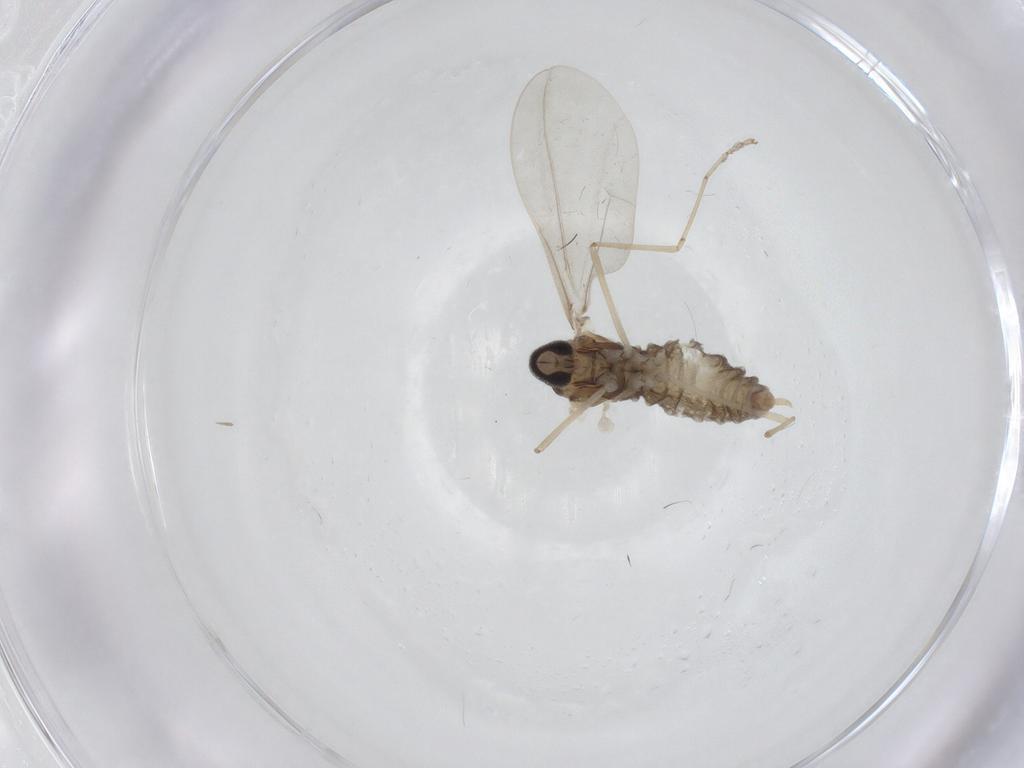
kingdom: Animalia
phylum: Arthropoda
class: Insecta
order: Diptera
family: Cecidomyiidae
